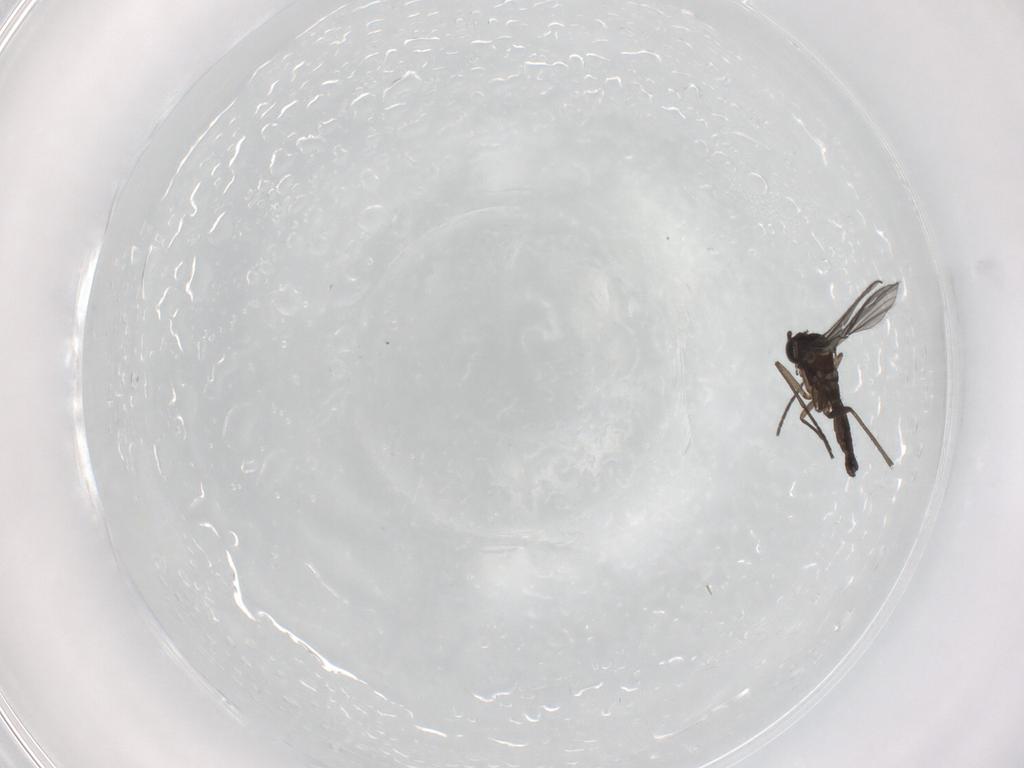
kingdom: Animalia
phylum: Arthropoda
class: Insecta
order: Diptera
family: Sciaridae
